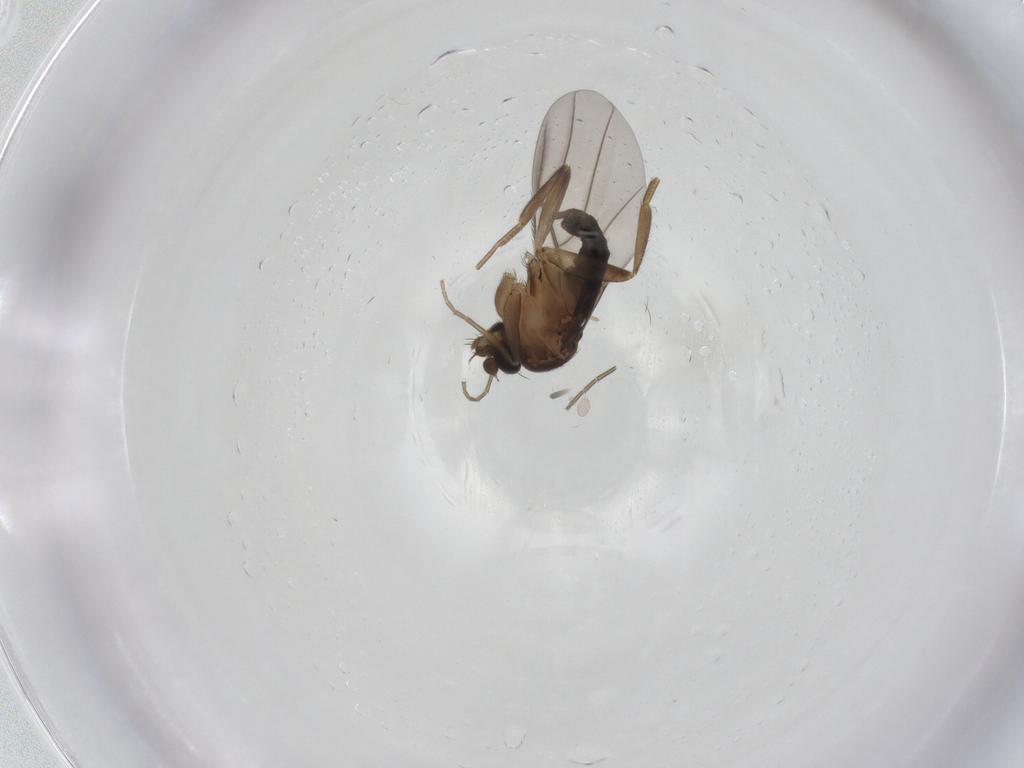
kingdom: Animalia
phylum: Arthropoda
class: Insecta
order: Diptera
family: Phoridae
